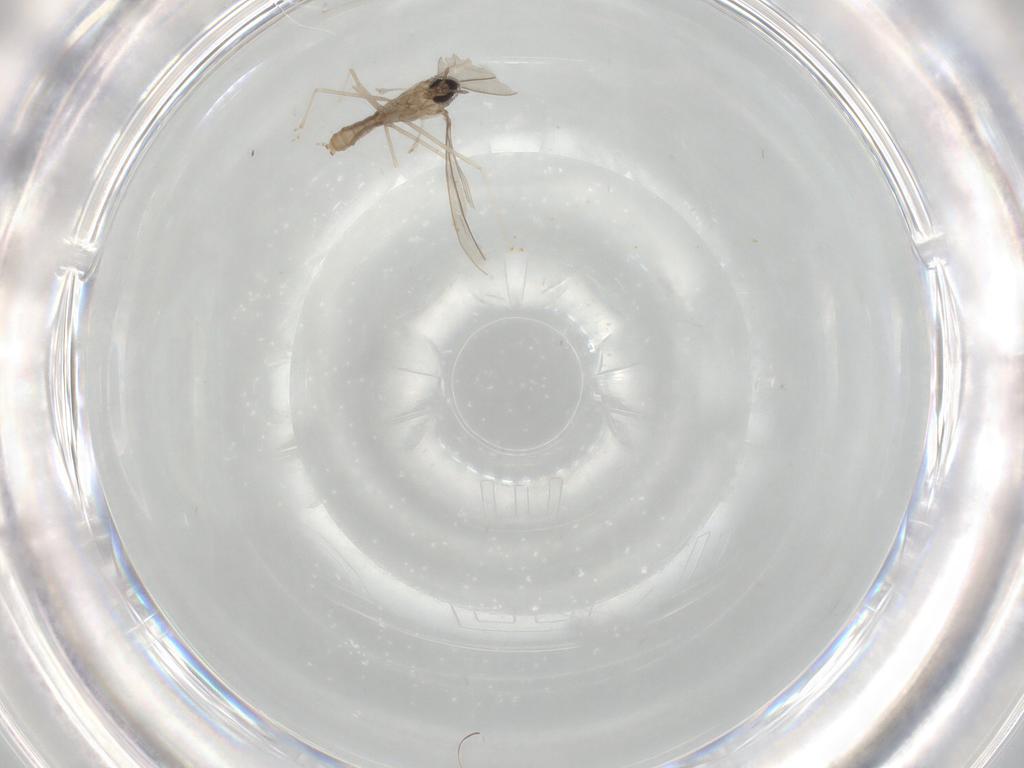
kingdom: Animalia
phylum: Arthropoda
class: Insecta
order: Diptera
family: Cecidomyiidae
